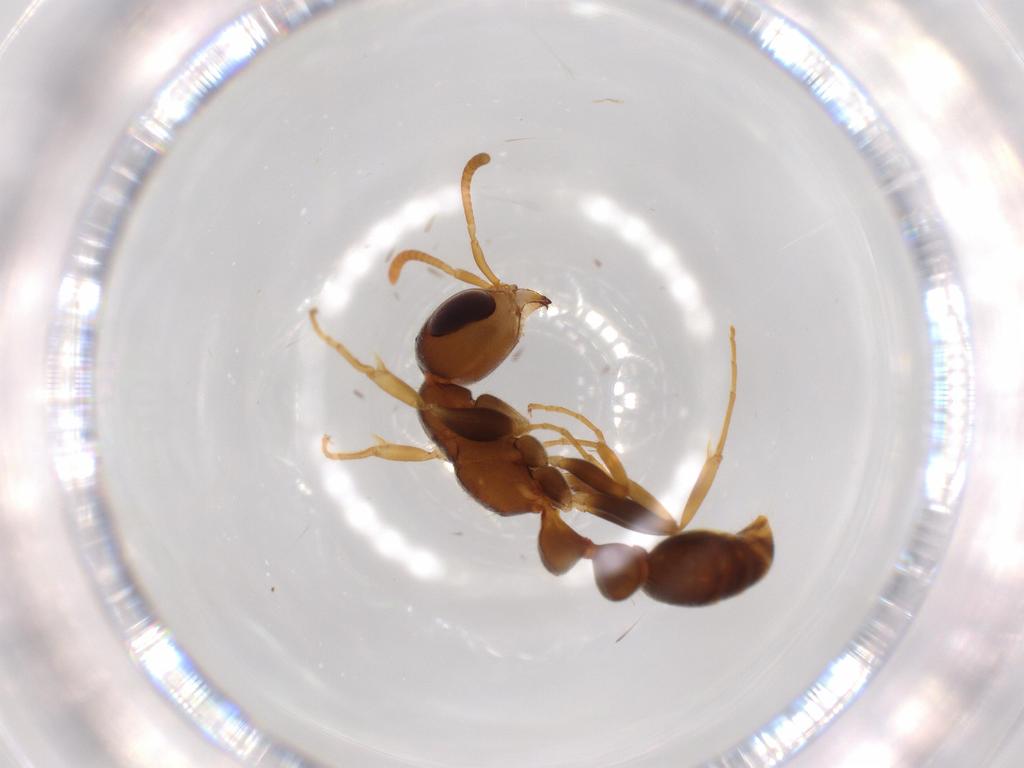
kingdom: Animalia
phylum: Arthropoda
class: Insecta
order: Hymenoptera
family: Formicidae
